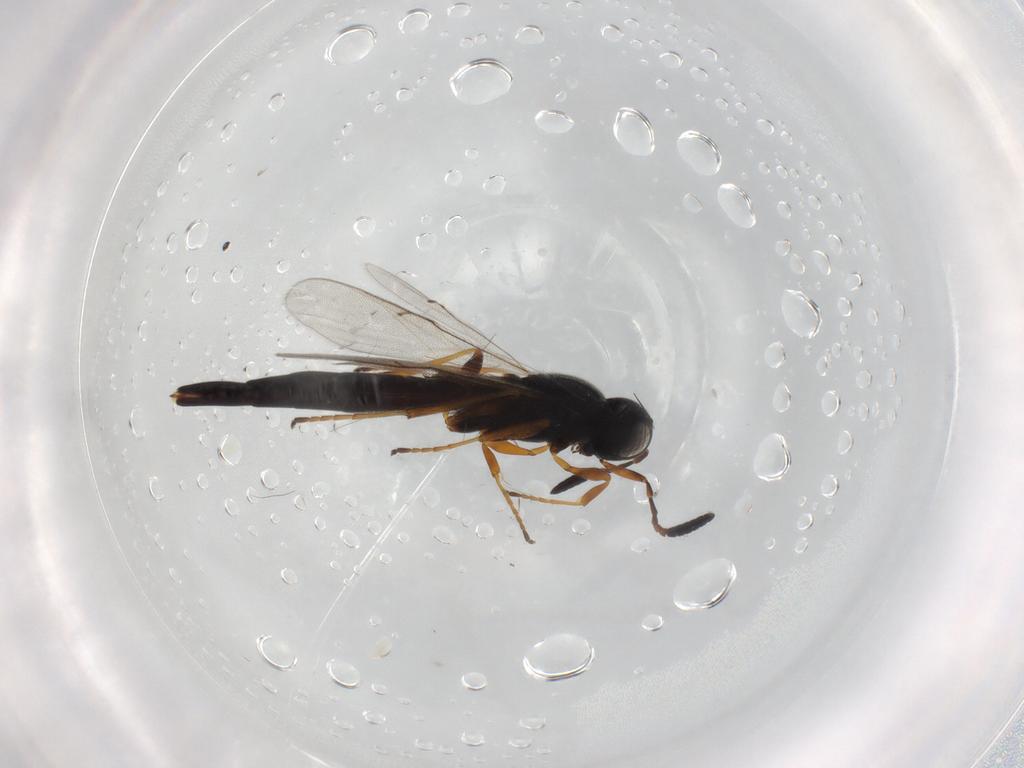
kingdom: Animalia
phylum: Arthropoda
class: Insecta
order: Hymenoptera
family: Scelionidae
